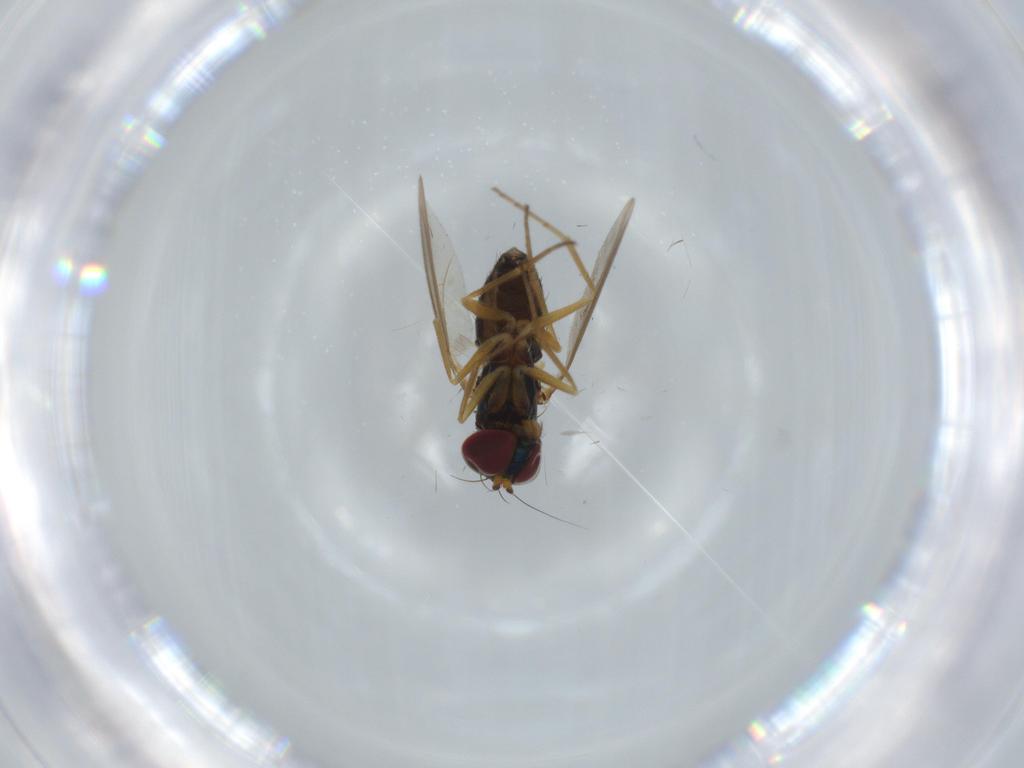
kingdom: Animalia
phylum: Arthropoda
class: Insecta
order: Diptera
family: Dolichopodidae
